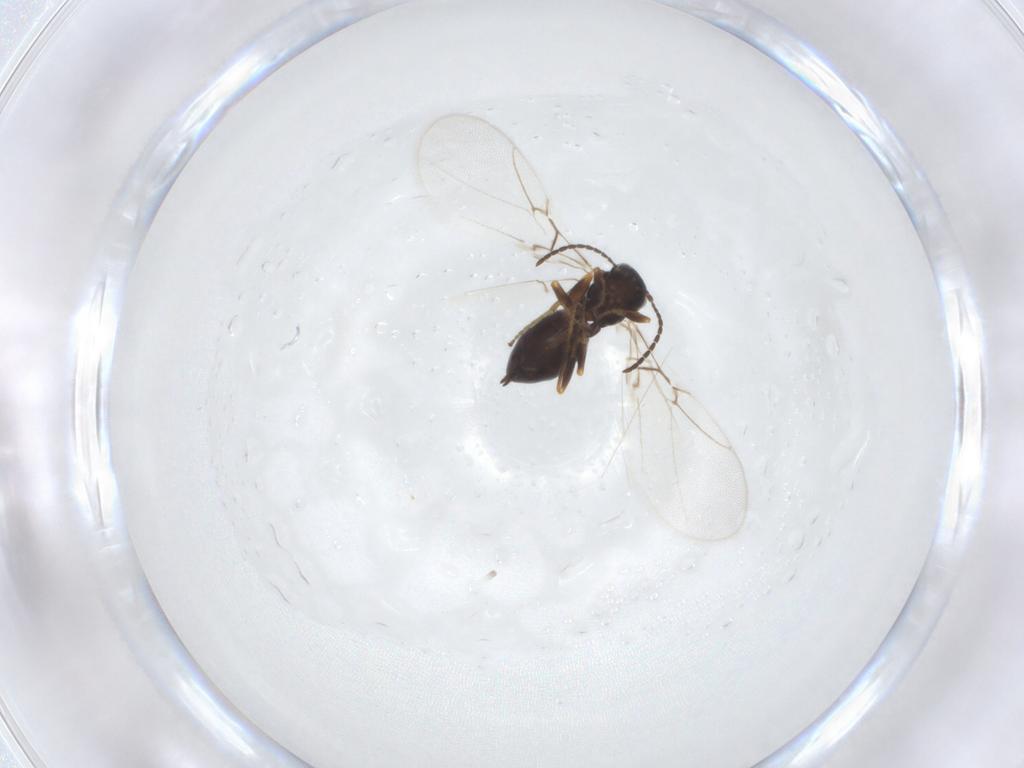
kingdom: Animalia
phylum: Arthropoda
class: Insecta
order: Hymenoptera
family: Cynipidae
